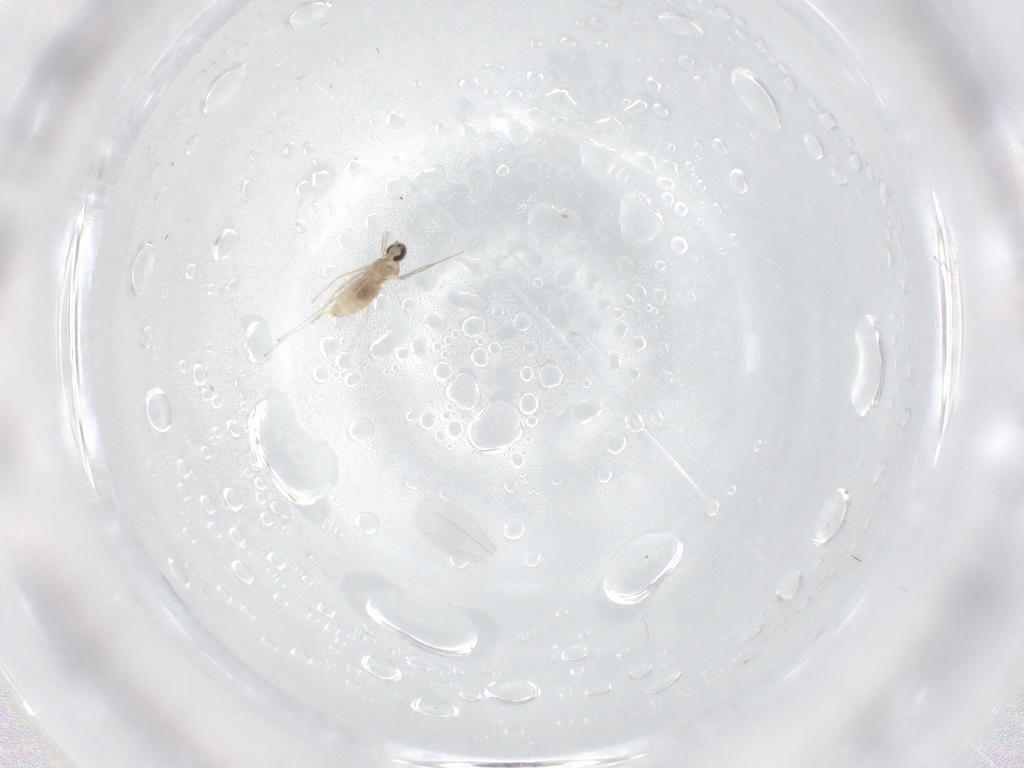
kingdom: Animalia
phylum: Arthropoda
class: Insecta
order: Diptera
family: Cecidomyiidae
